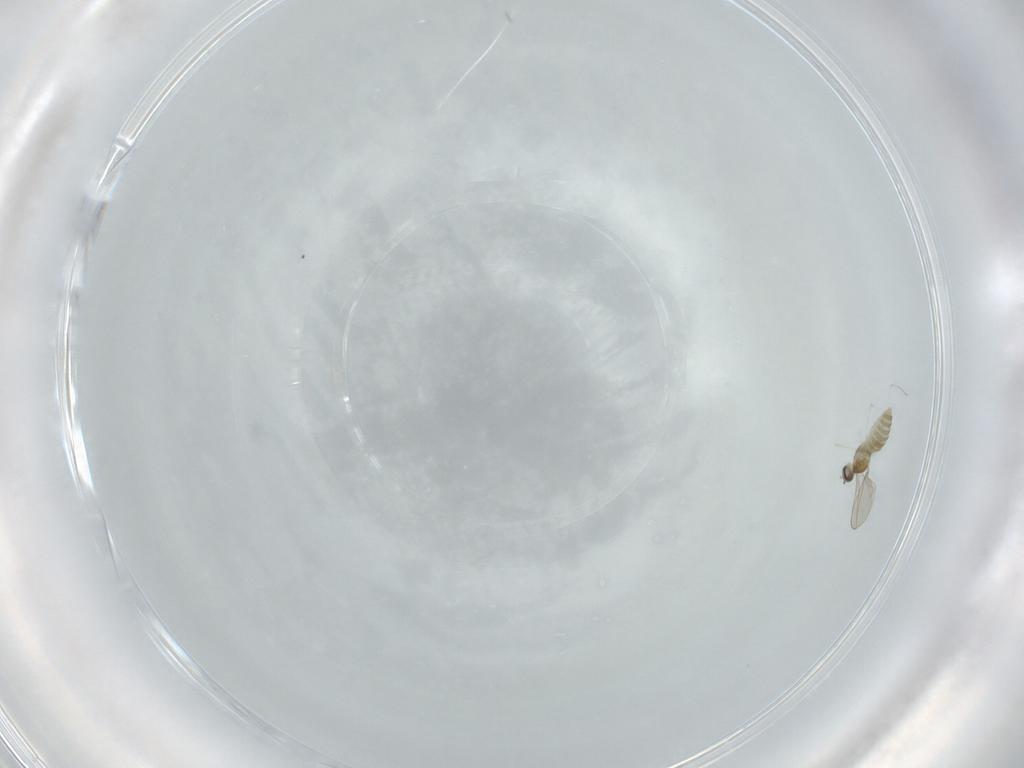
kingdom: Animalia
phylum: Arthropoda
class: Insecta
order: Diptera
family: Cecidomyiidae
